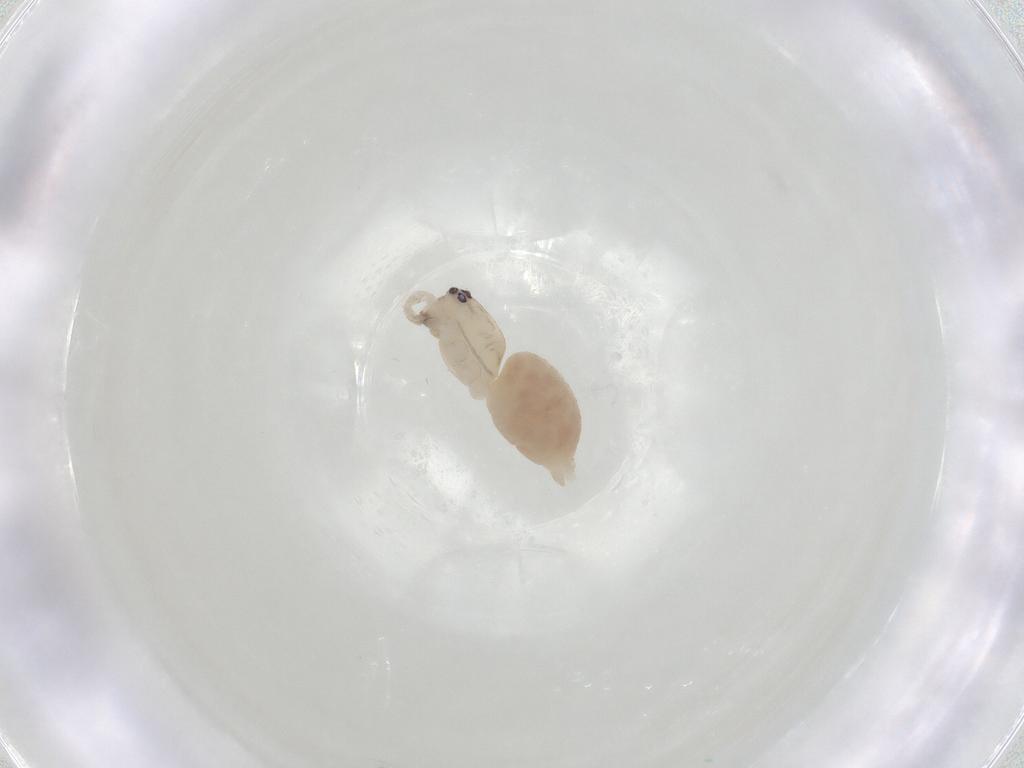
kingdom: Animalia
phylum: Arthropoda
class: Arachnida
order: Araneae
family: Anyphaenidae
